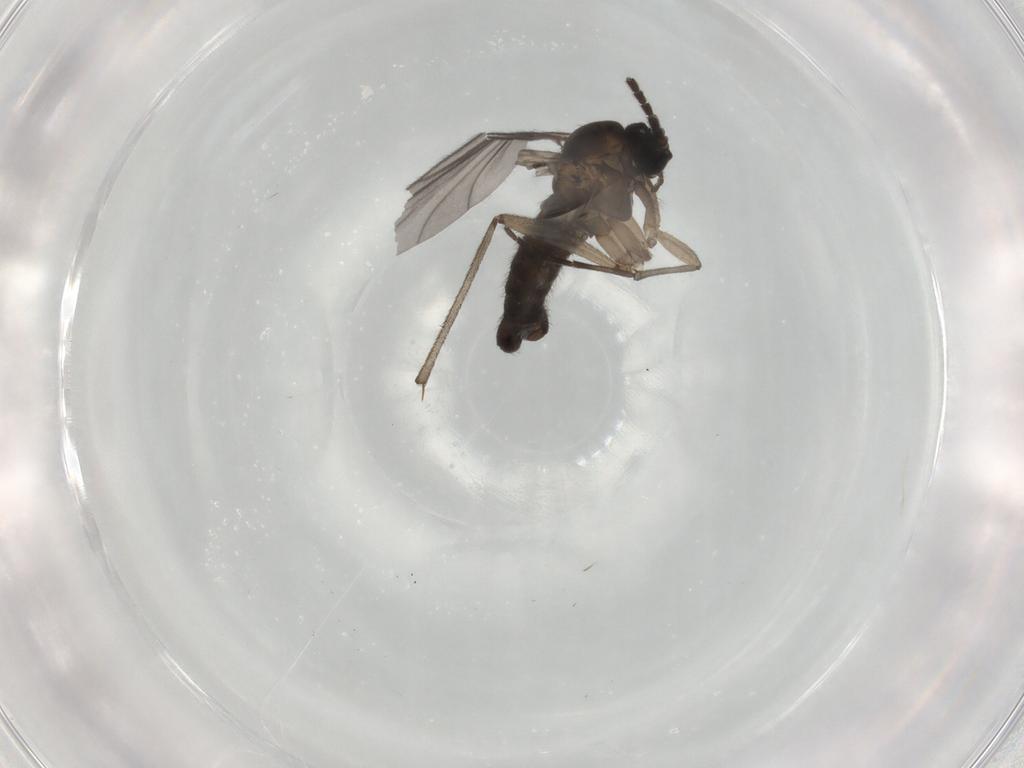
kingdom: Animalia
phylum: Arthropoda
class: Insecta
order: Diptera
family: Sciaridae
